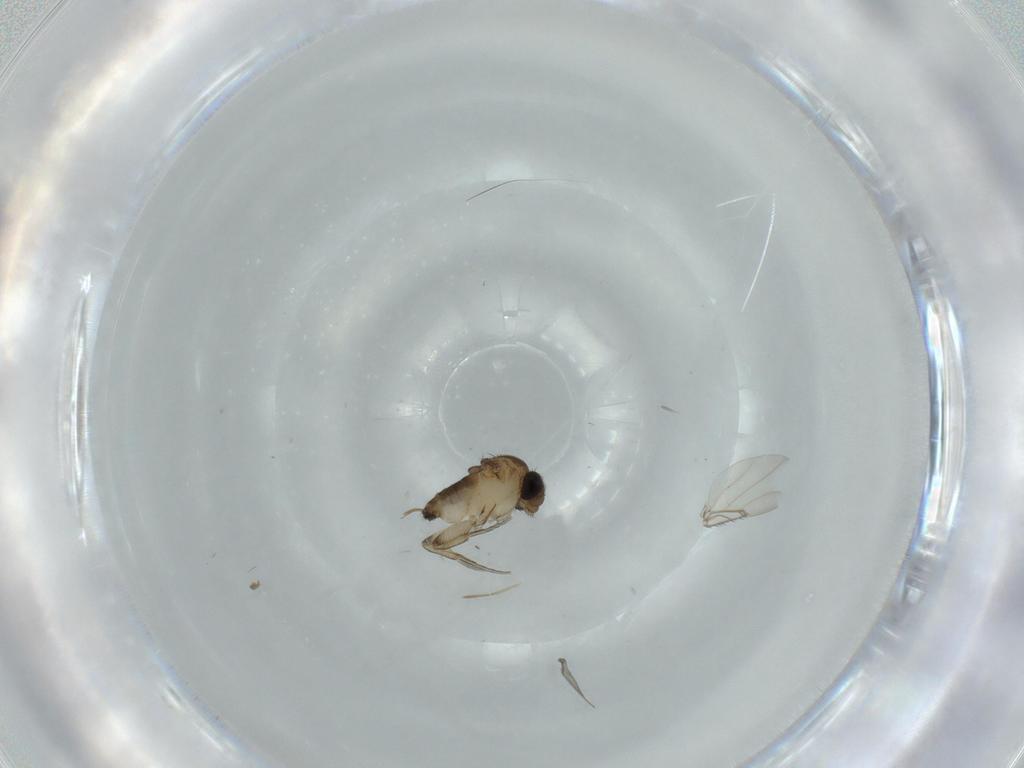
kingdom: Animalia
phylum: Arthropoda
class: Insecta
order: Diptera
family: Phoridae
